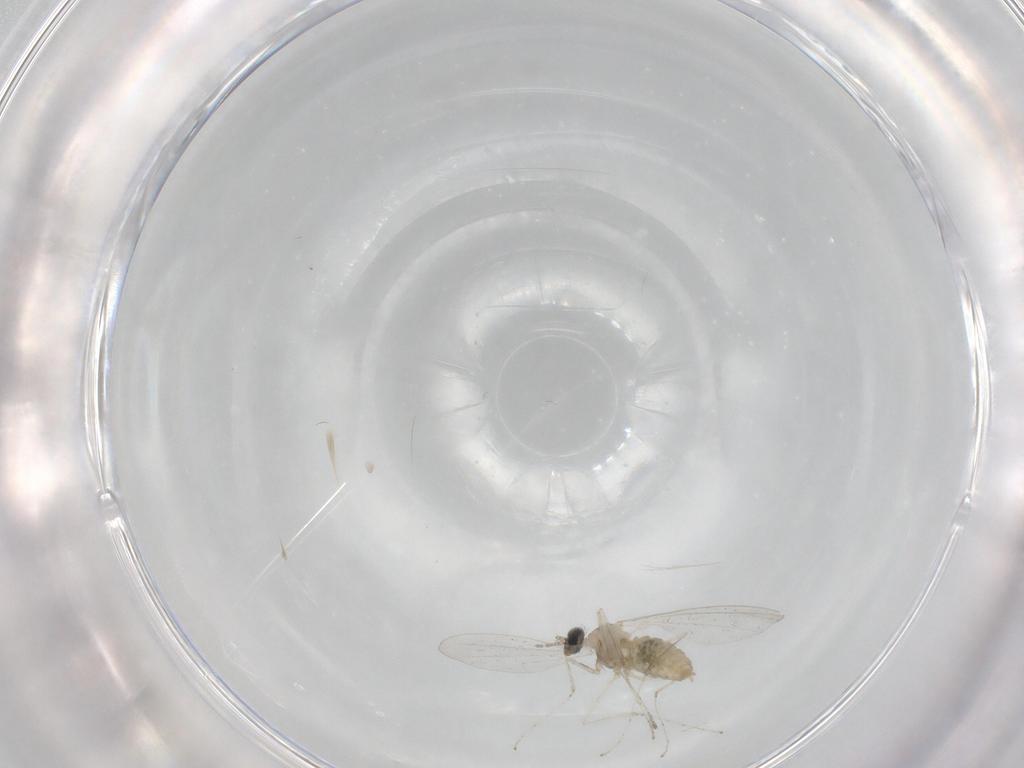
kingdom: Animalia
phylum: Arthropoda
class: Insecta
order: Diptera
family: Cecidomyiidae
